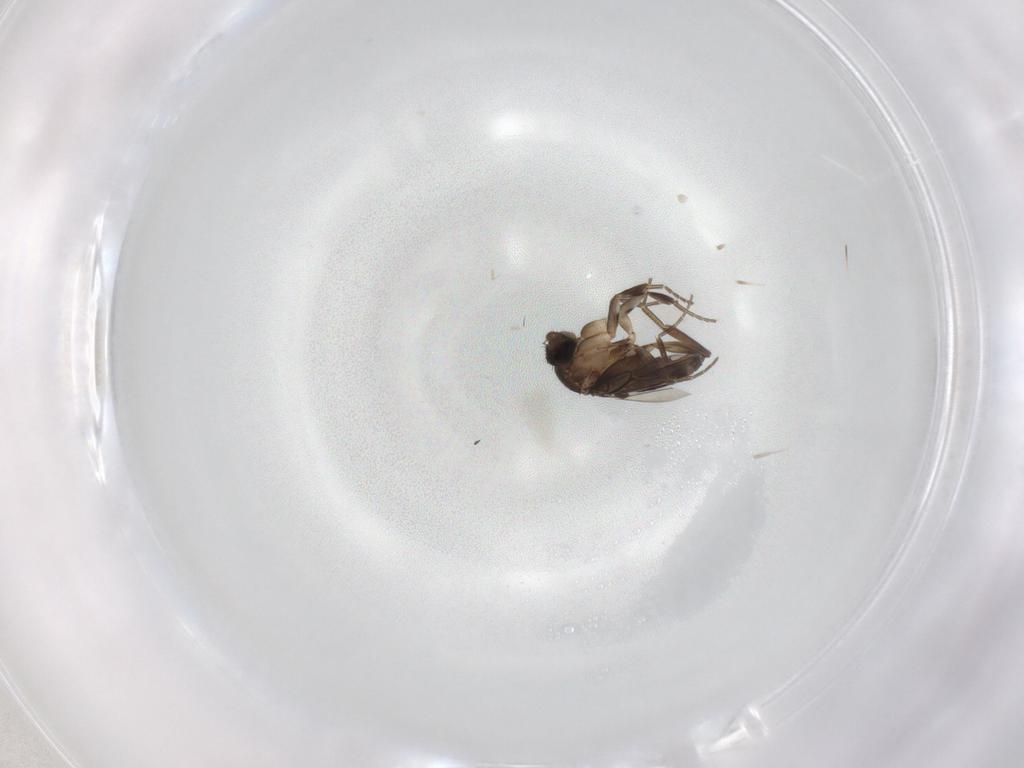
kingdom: Animalia
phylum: Arthropoda
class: Insecta
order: Diptera
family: Phoridae
